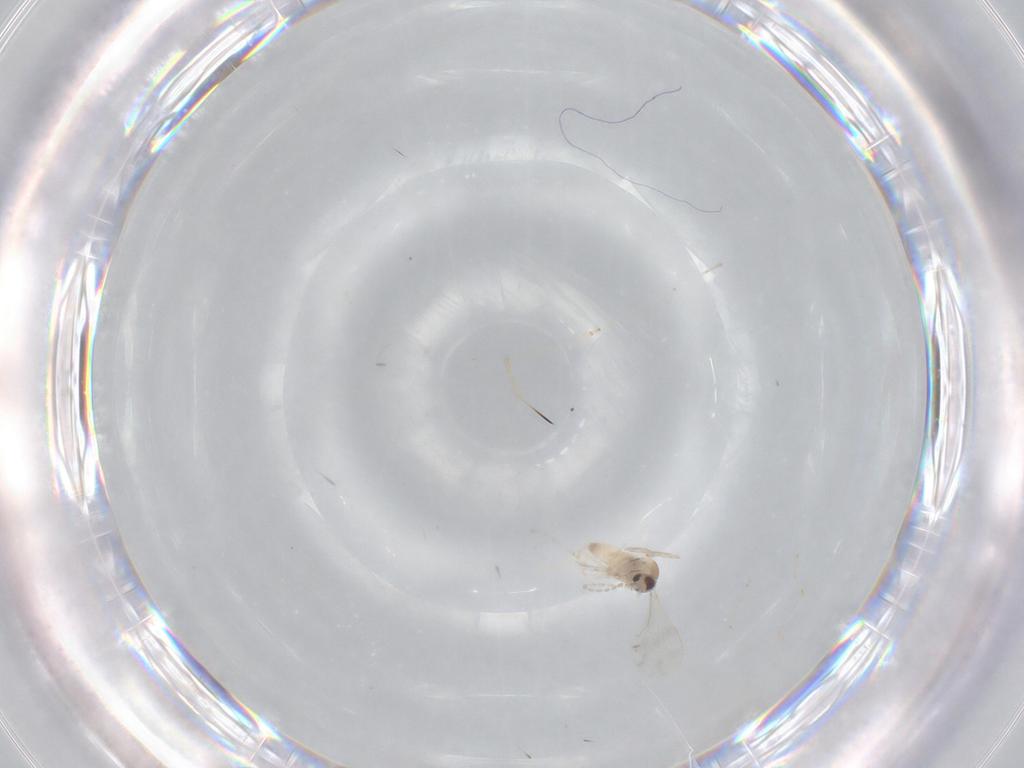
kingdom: Animalia
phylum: Arthropoda
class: Insecta
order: Diptera
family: Cecidomyiidae
